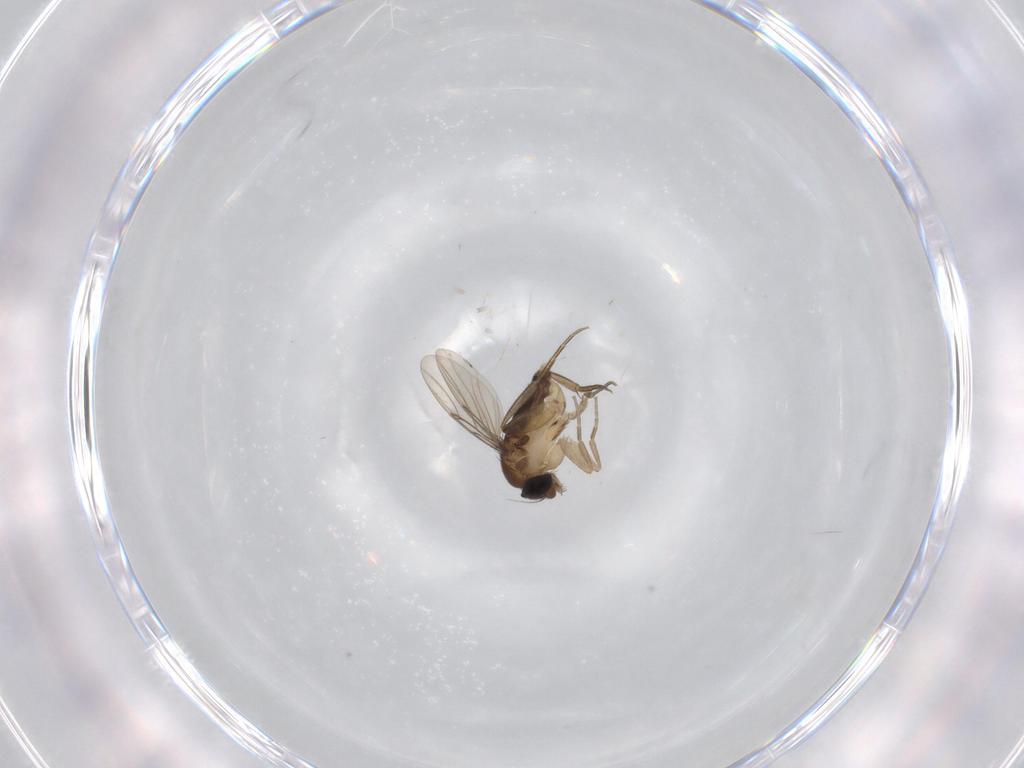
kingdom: Animalia
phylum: Arthropoda
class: Insecta
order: Diptera
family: Phoridae
